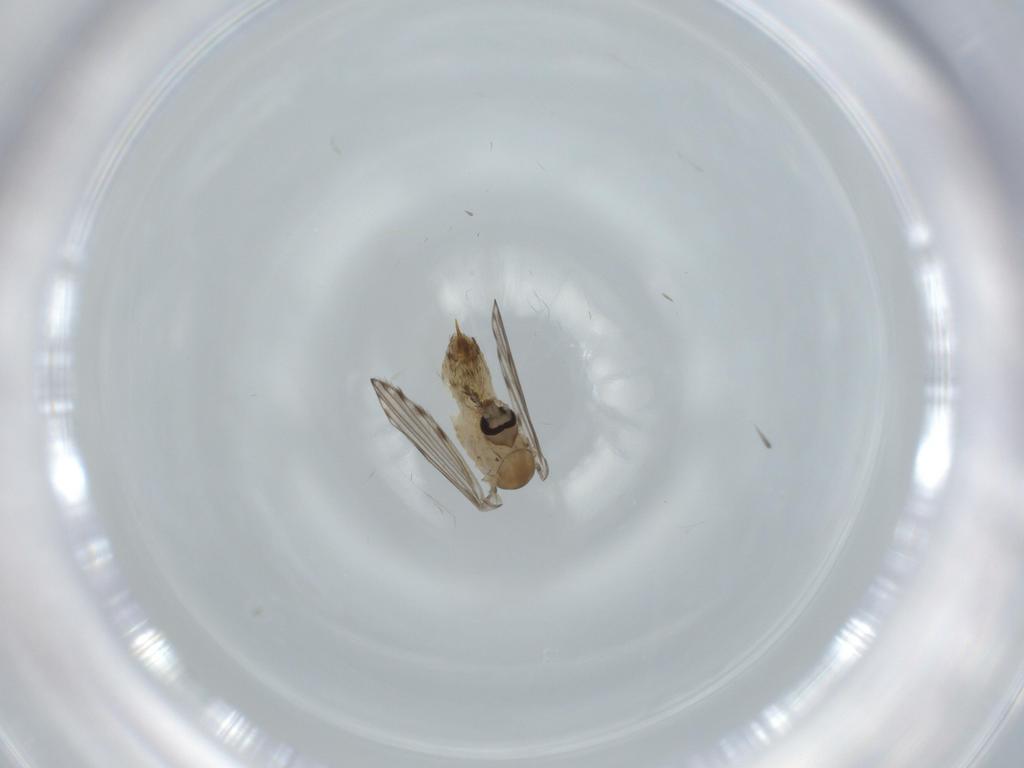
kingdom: Animalia
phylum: Arthropoda
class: Insecta
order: Diptera
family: Psychodidae
